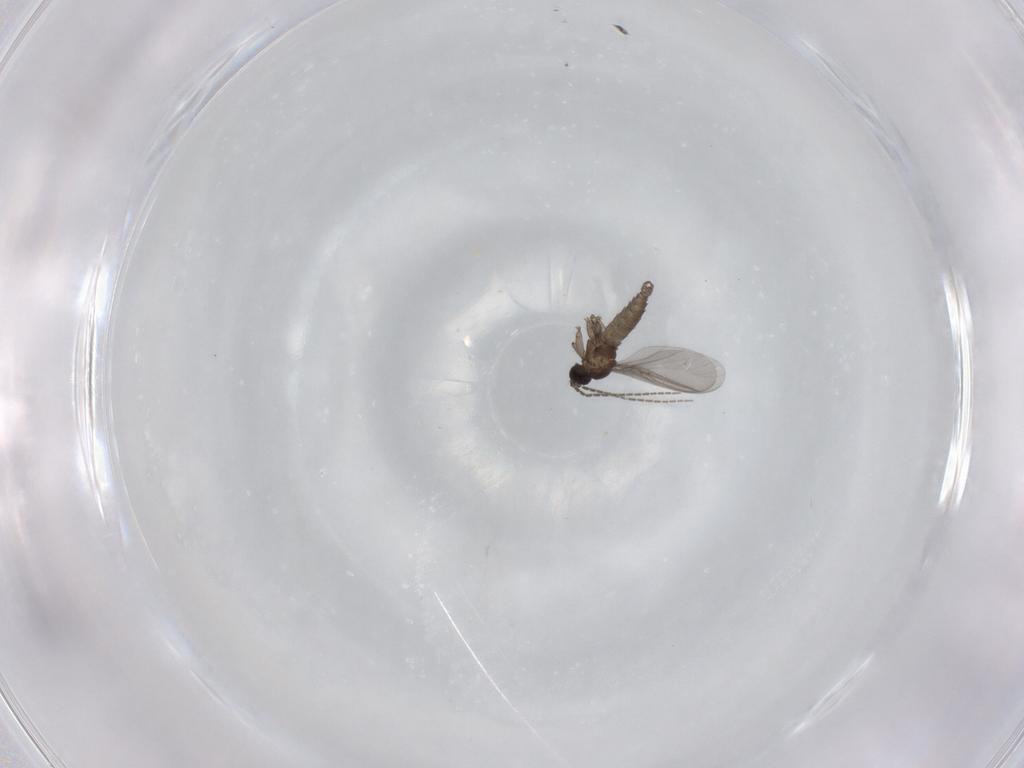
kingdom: Animalia
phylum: Arthropoda
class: Insecta
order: Diptera
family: Sciaridae
